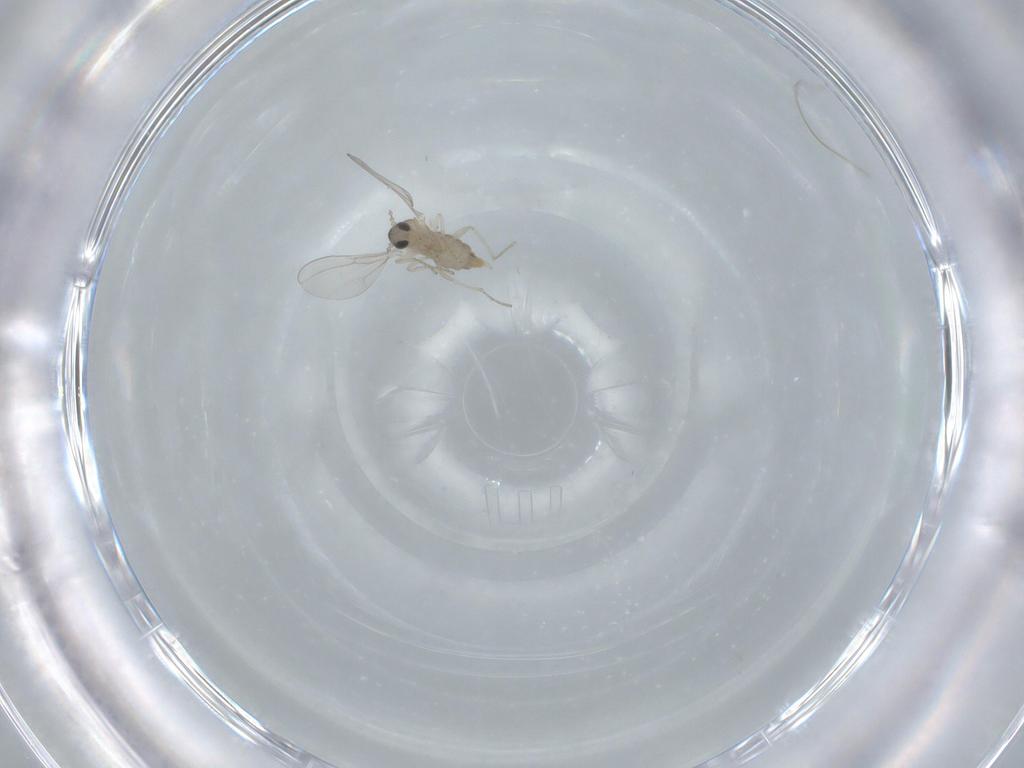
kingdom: Animalia
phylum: Arthropoda
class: Insecta
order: Diptera
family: Cecidomyiidae
